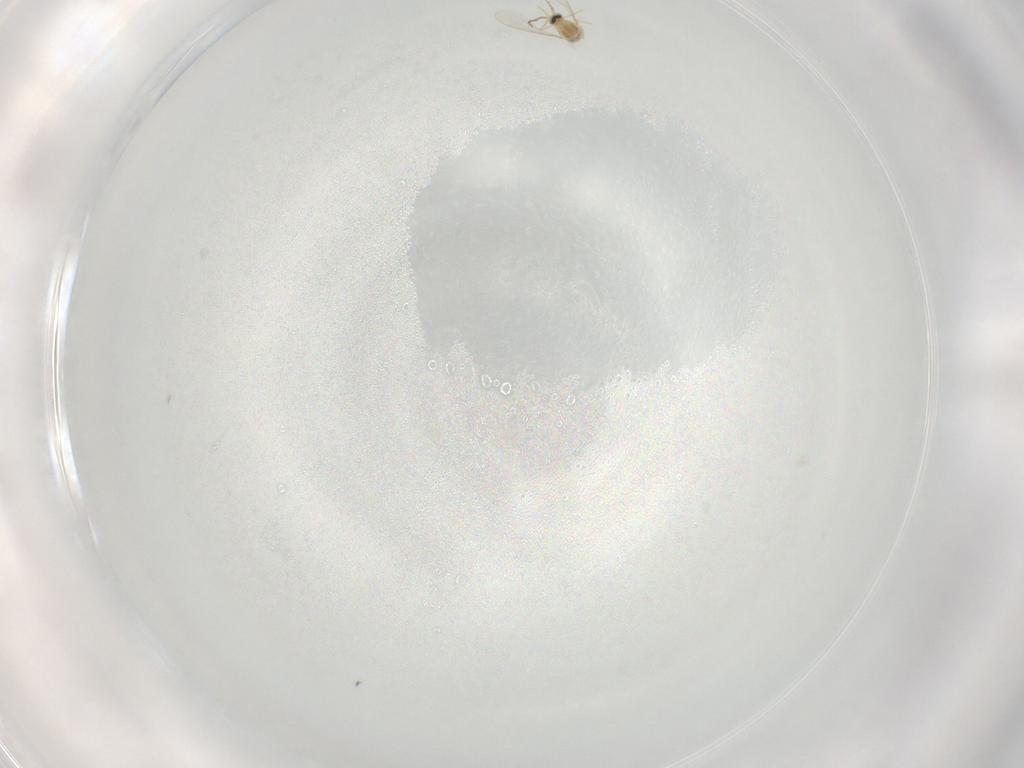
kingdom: Animalia
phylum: Arthropoda
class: Insecta
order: Diptera
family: Cecidomyiidae
